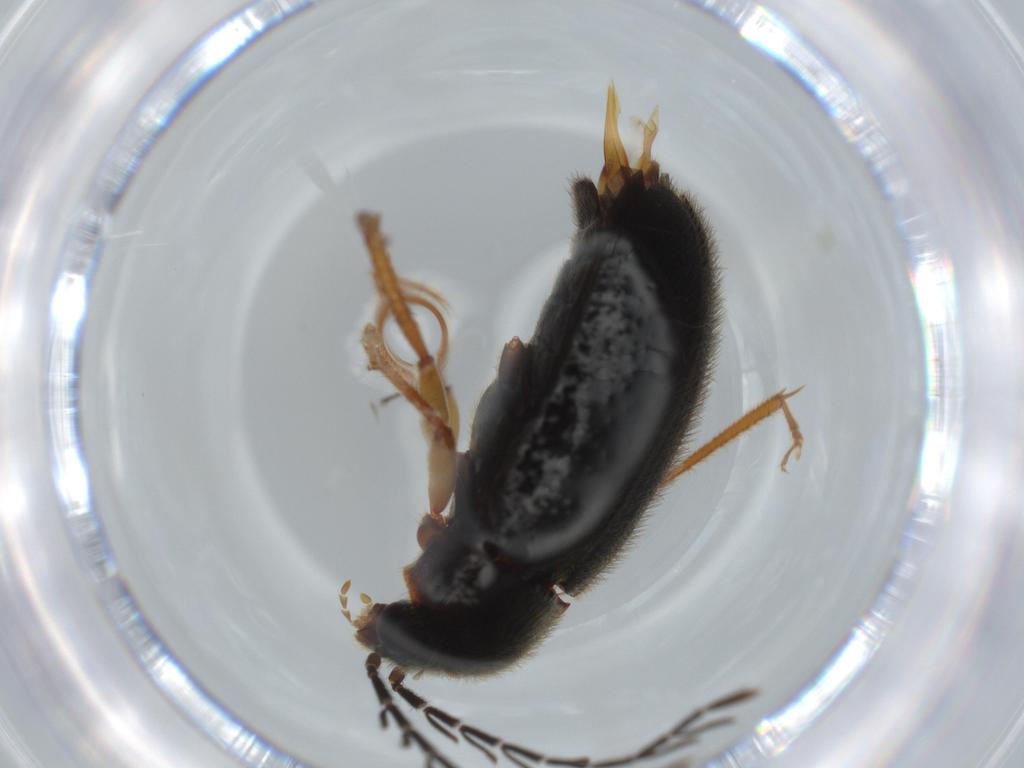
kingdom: Animalia
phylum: Arthropoda
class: Insecta
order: Coleoptera
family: Ptilodactylidae
